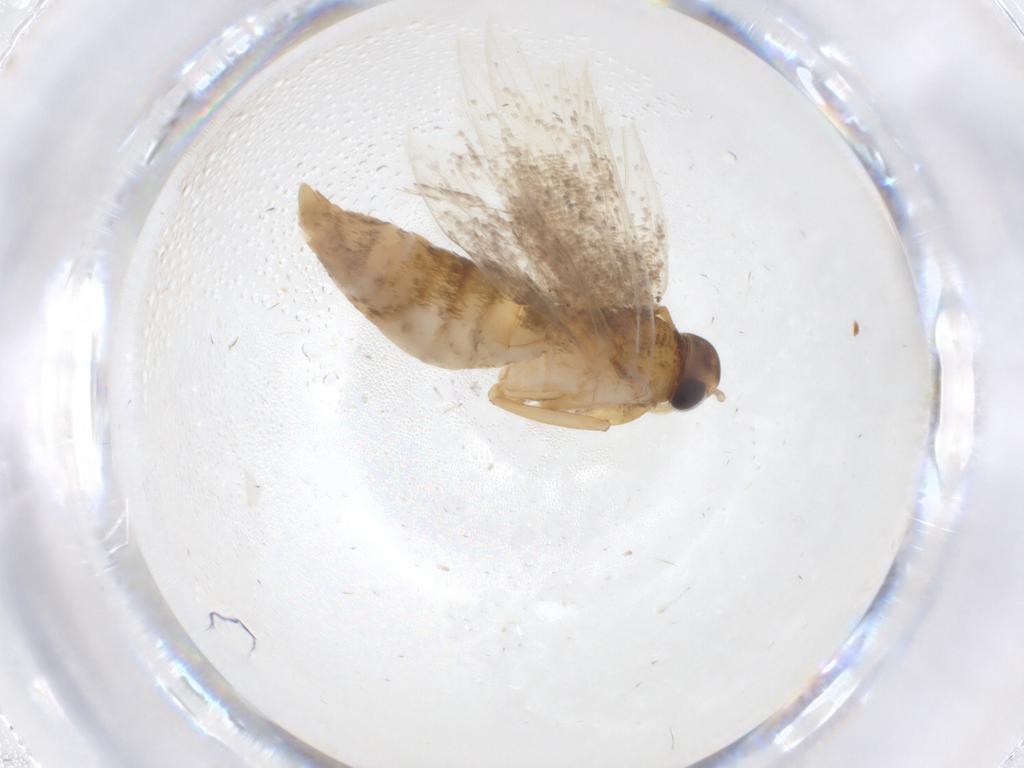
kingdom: Animalia
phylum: Arthropoda
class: Insecta
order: Lepidoptera
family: Oecophoridae
